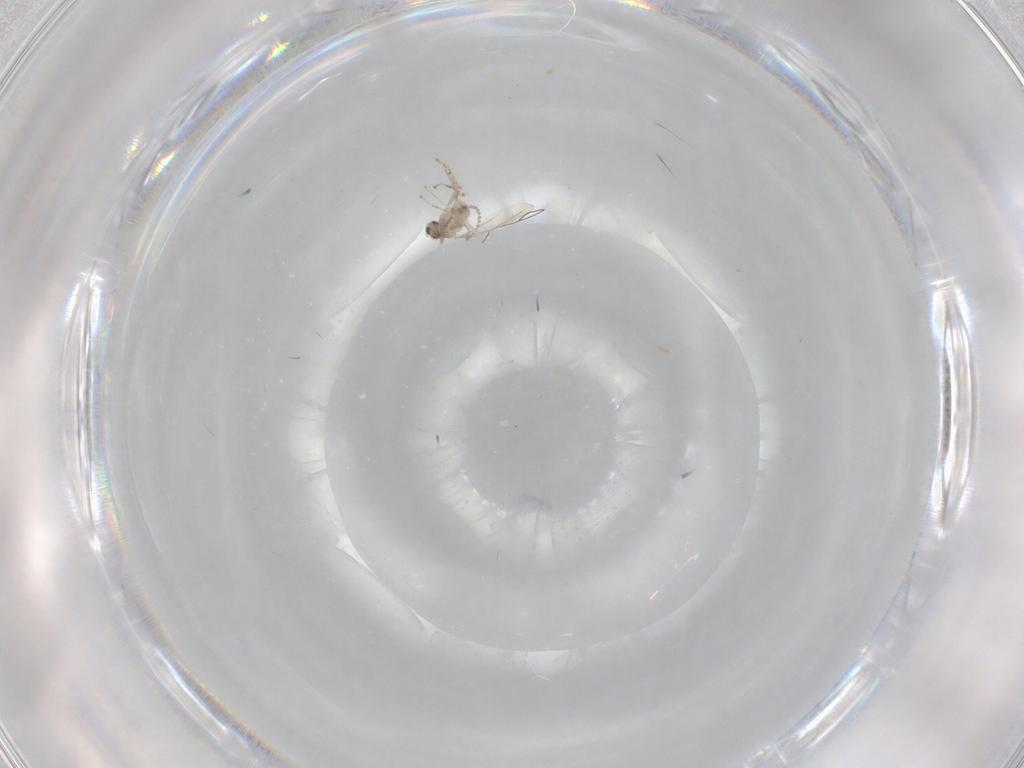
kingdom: Animalia
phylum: Arthropoda
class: Insecta
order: Diptera
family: Cecidomyiidae
